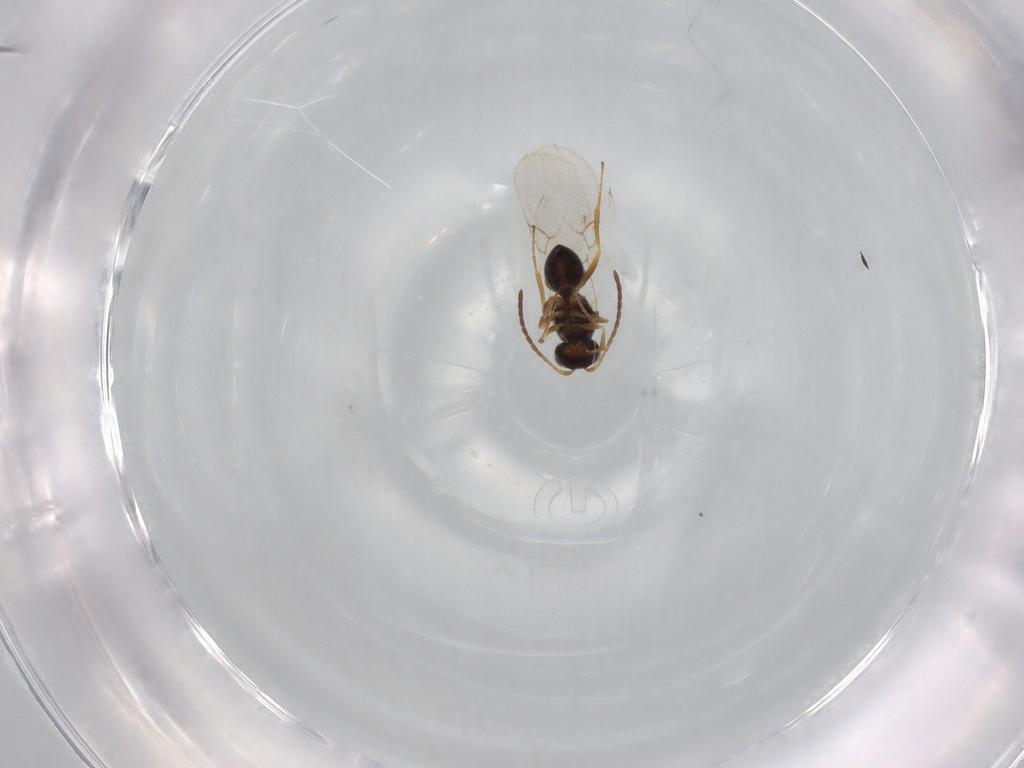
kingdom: Animalia
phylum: Arthropoda
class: Insecta
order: Hymenoptera
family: Figitidae
